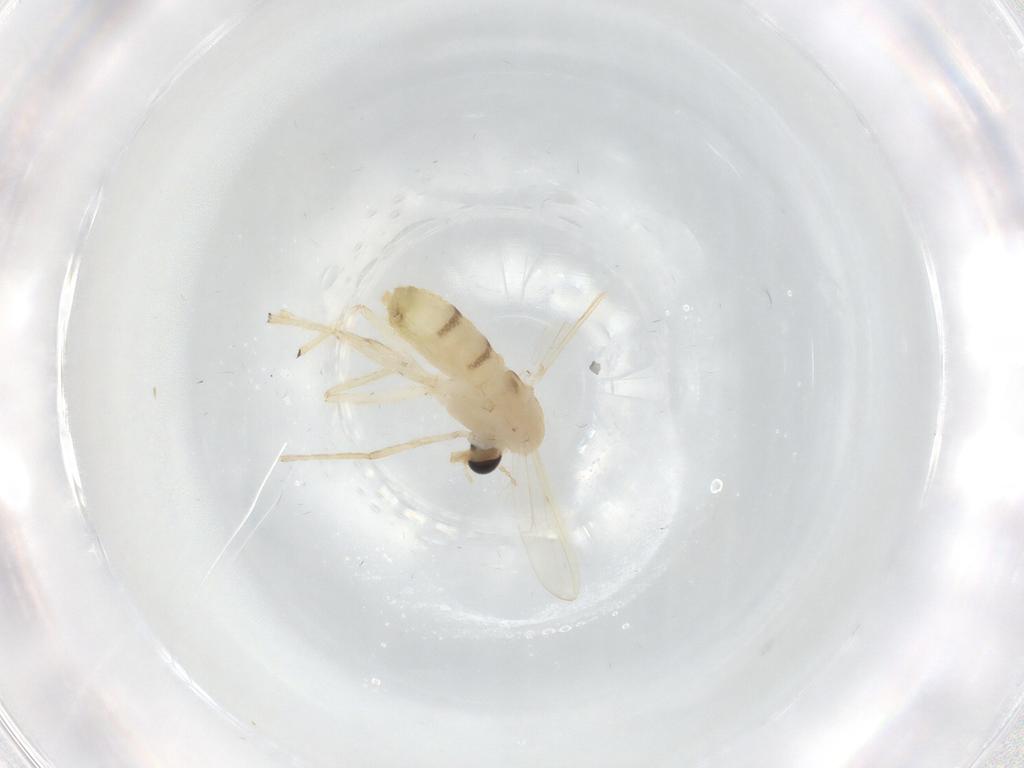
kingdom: Animalia
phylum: Arthropoda
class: Insecta
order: Diptera
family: Chironomidae
